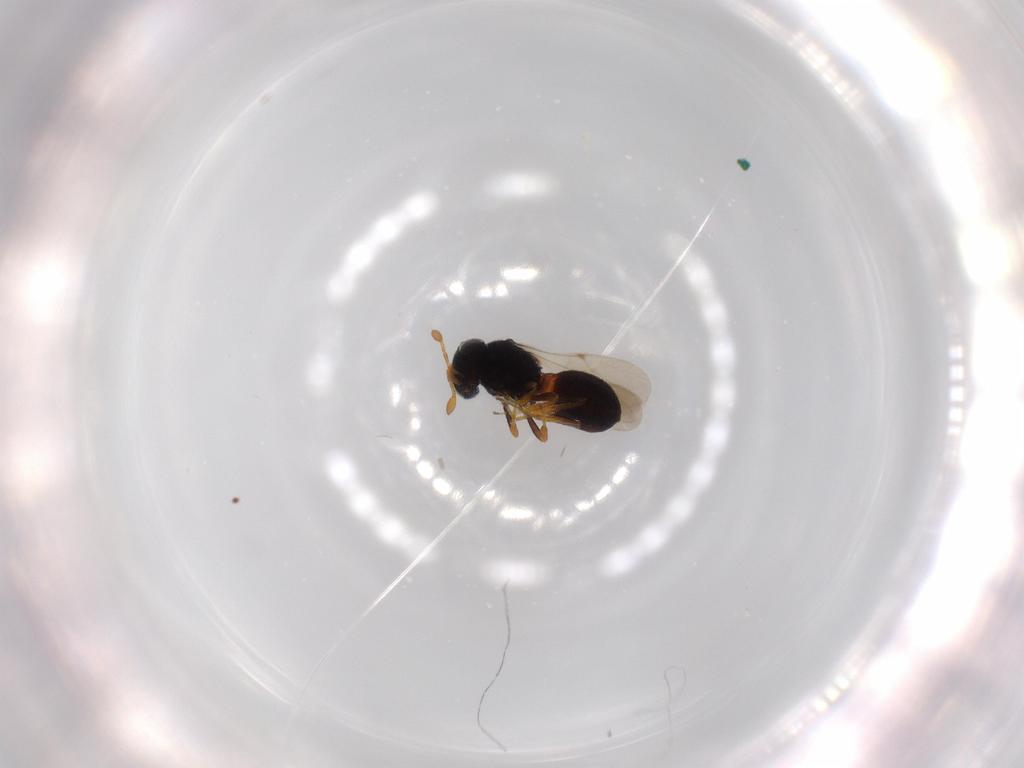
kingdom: Animalia
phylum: Arthropoda
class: Insecta
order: Hymenoptera
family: Scelionidae
